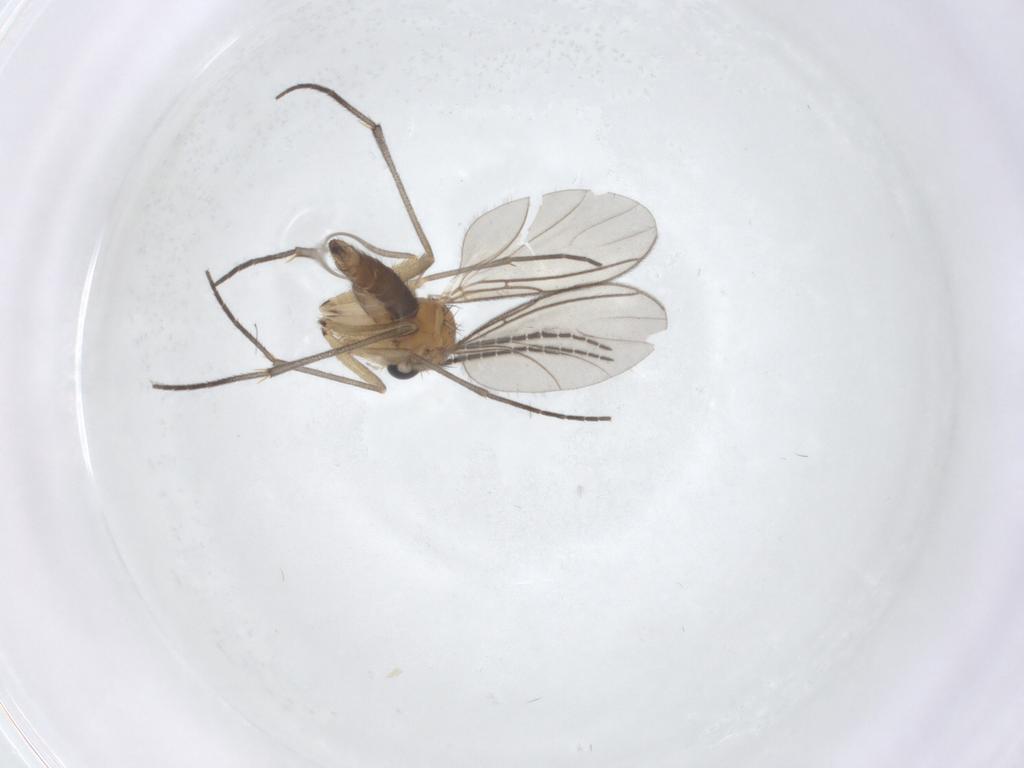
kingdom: Animalia
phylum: Arthropoda
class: Insecta
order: Diptera
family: Sciaridae
